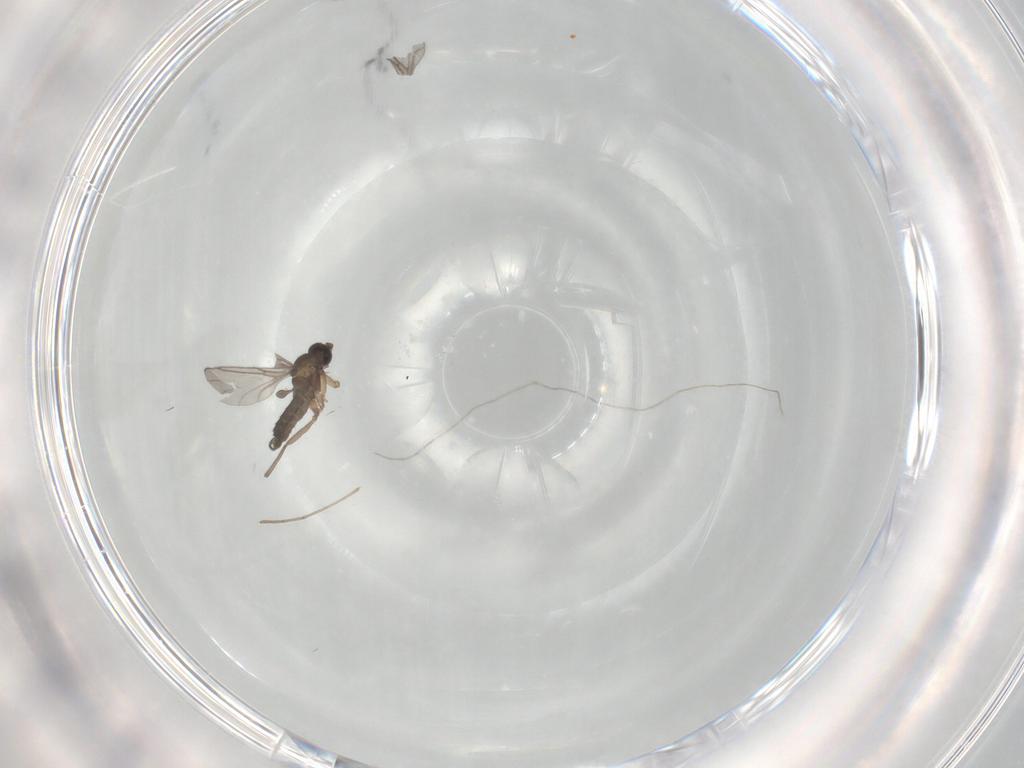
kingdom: Animalia
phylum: Arthropoda
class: Insecta
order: Diptera
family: Sciaridae
